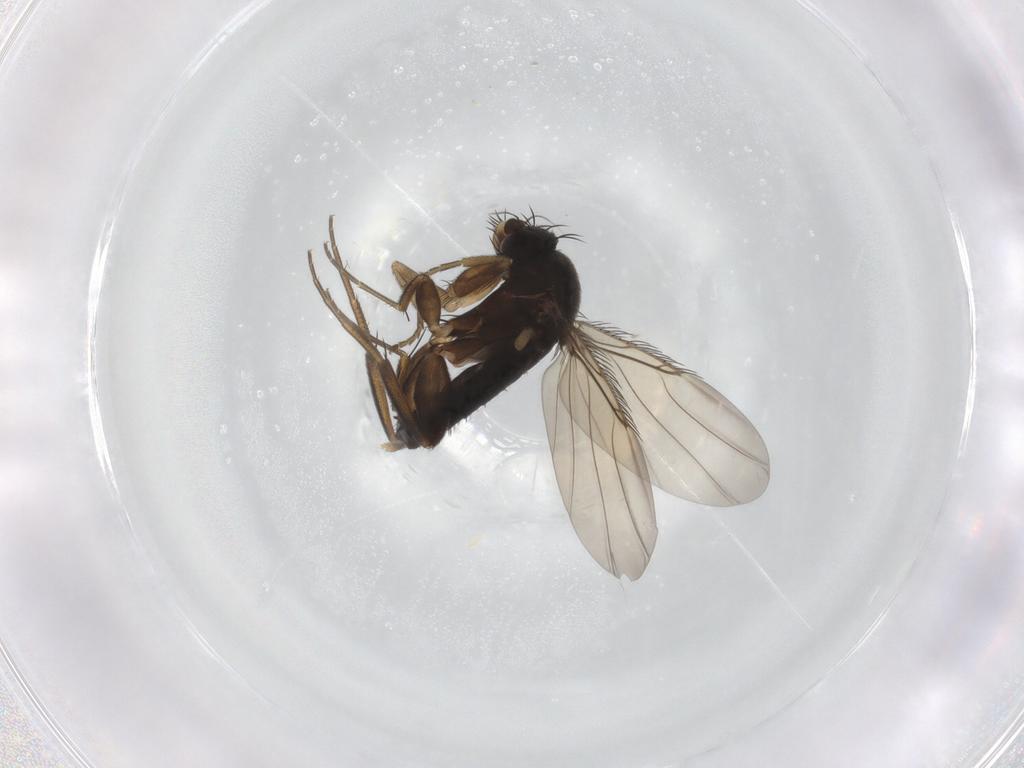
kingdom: Animalia
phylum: Arthropoda
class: Insecta
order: Diptera
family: Phoridae
